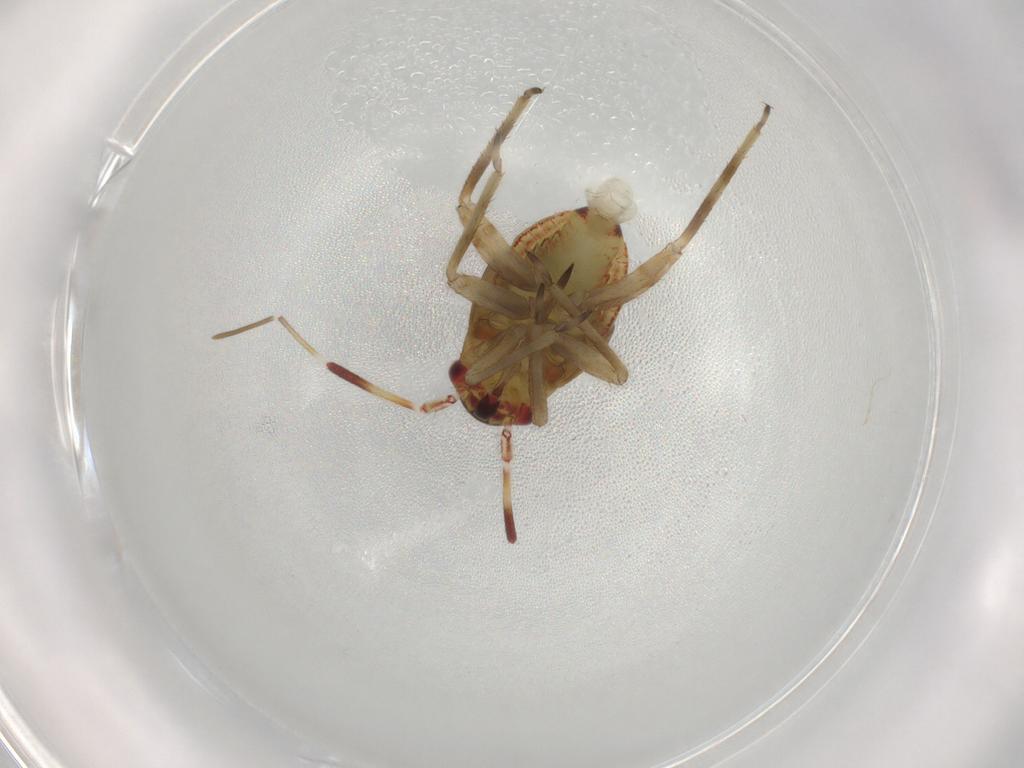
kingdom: Animalia
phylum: Arthropoda
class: Insecta
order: Hemiptera
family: Miridae
